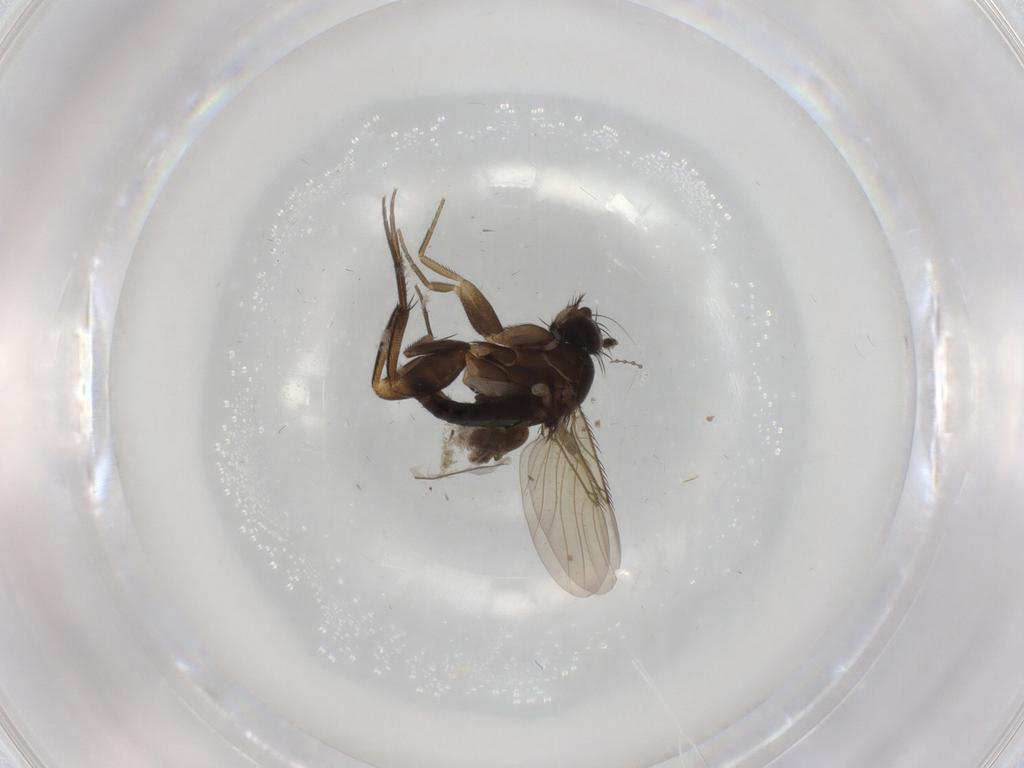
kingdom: Animalia
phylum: Arthropoda
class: Insecta
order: Diptera
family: Sciaridae
